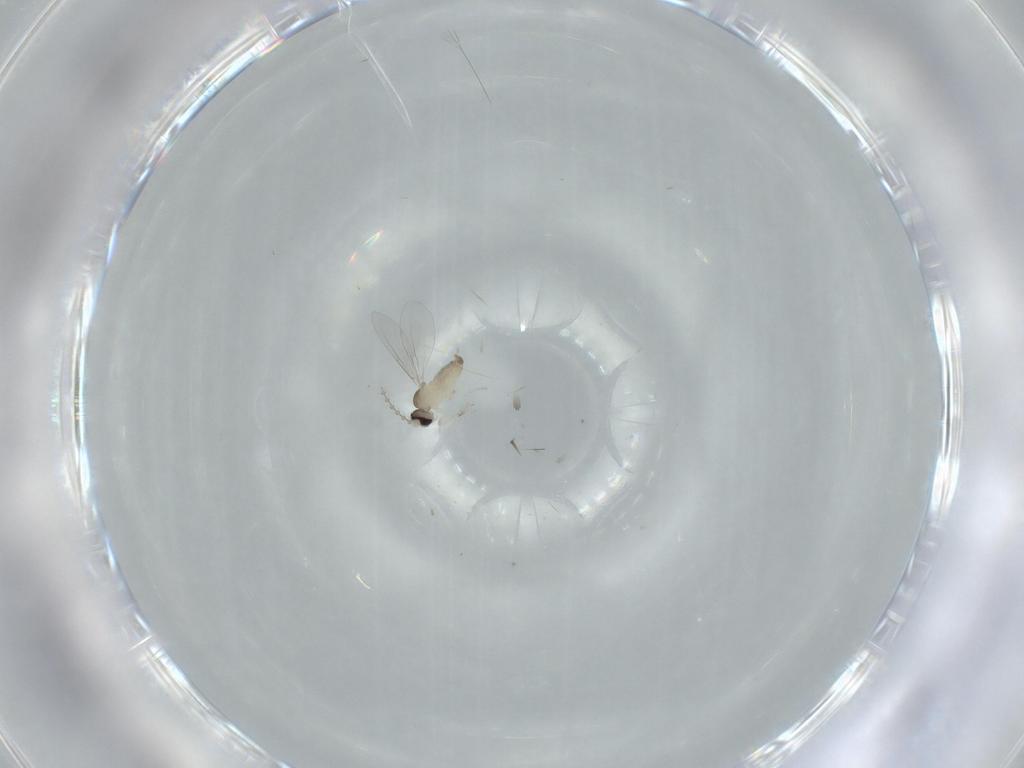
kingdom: Animalia
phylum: Arthropoda
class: Insecta
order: Diptera
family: Cecidomyiidae
